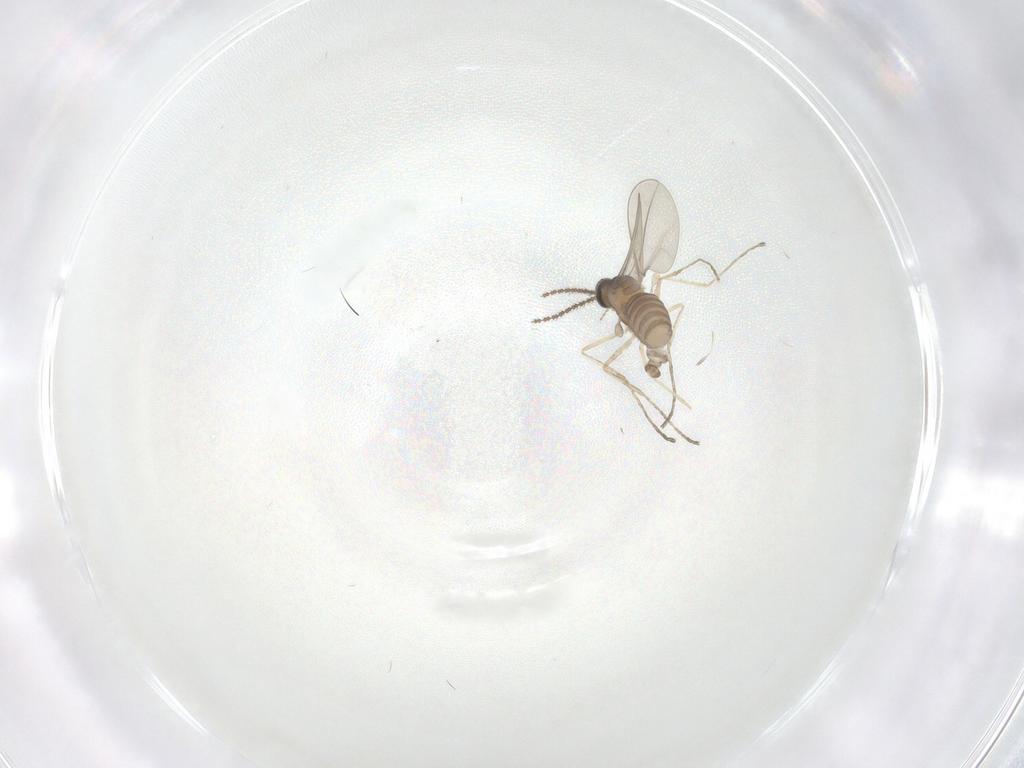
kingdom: Animalia
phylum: Arthropoda
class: Insecta
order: Diptera
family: Cecidomyiidae
